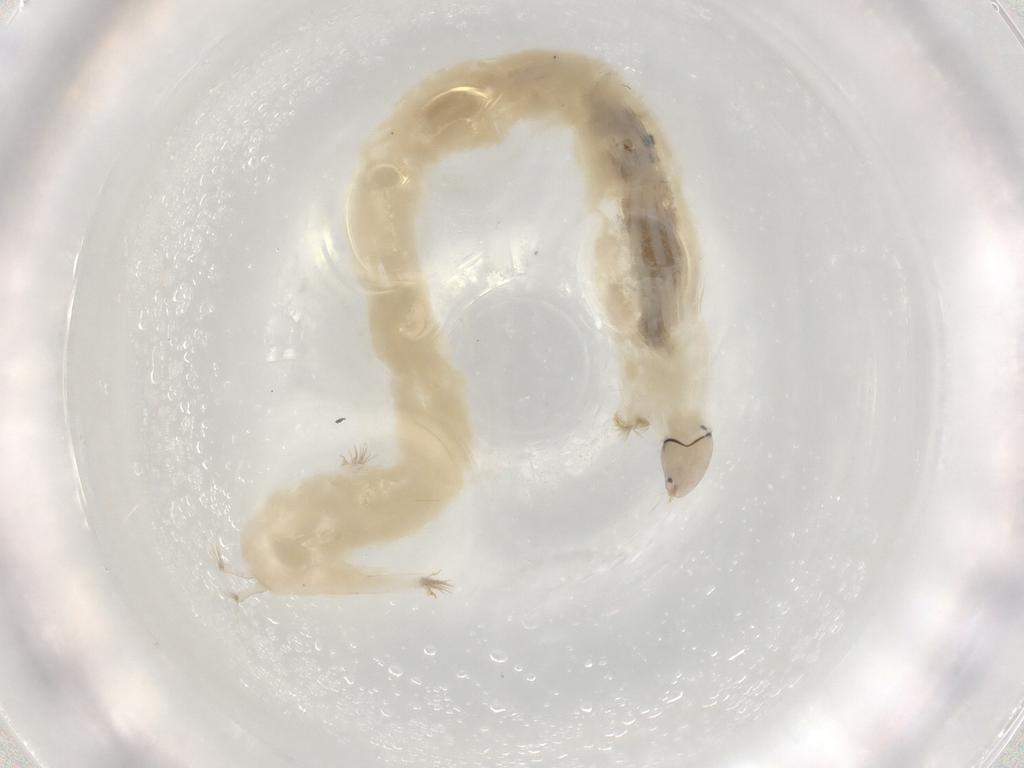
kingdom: Animalia
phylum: Arthropoda
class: Insecta
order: Diptera
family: Chironomidae
